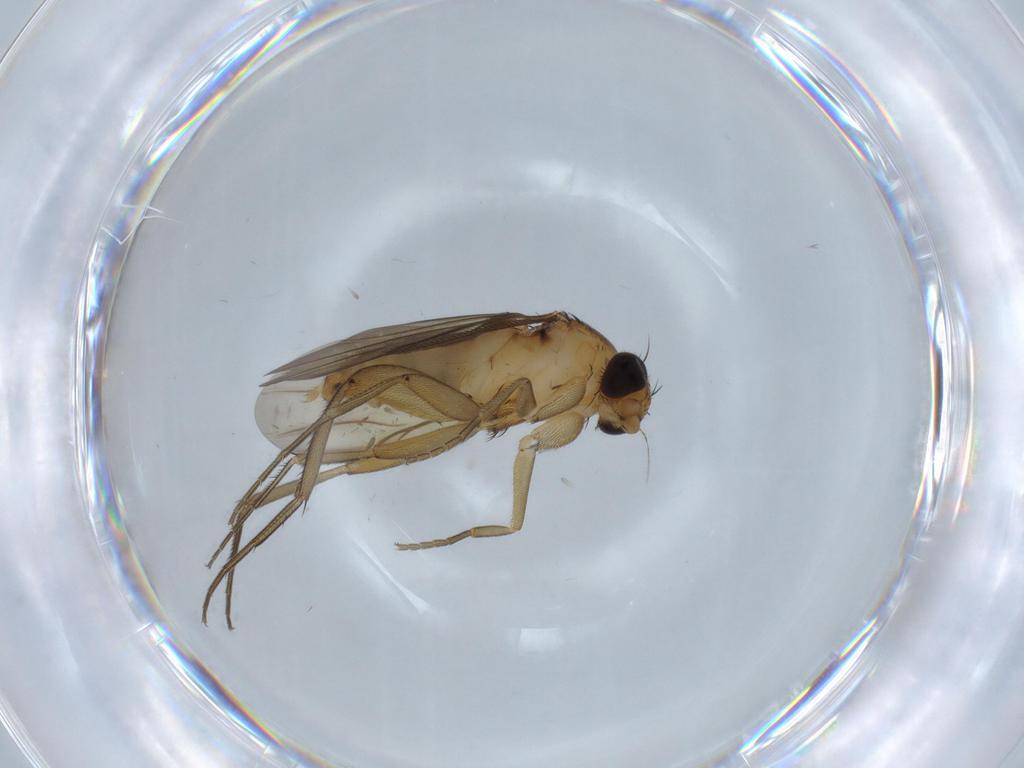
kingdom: Animalia
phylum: Arthropoda
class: Insecta
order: Diptera
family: Phoridae
